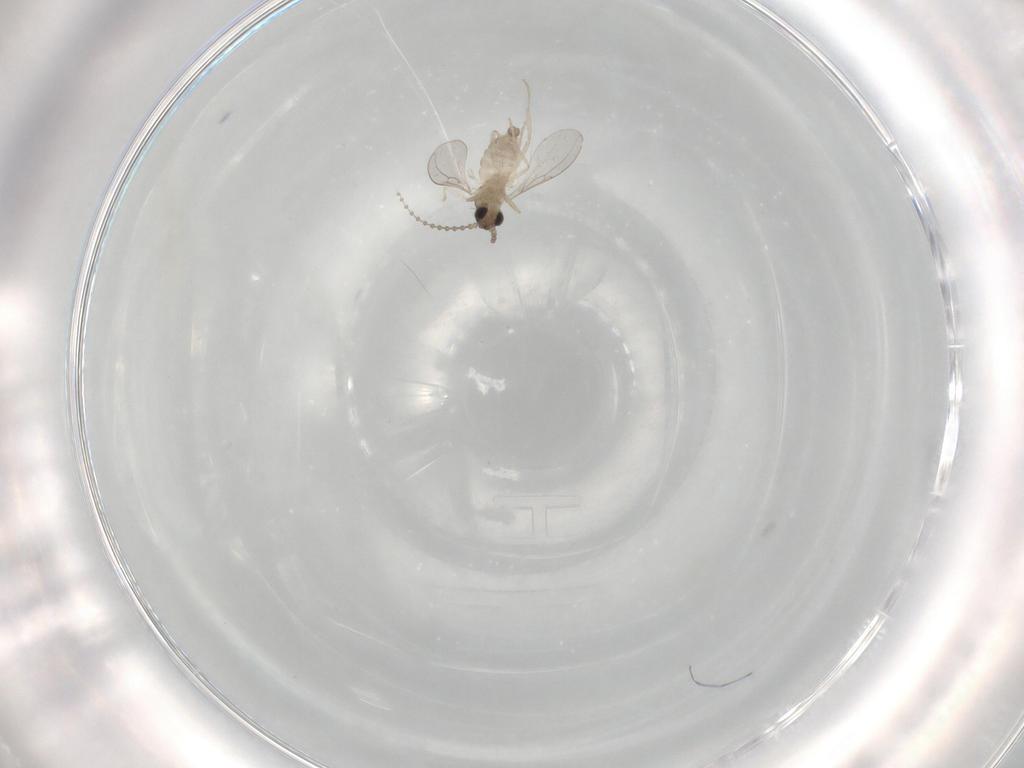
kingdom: Animalia
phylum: Arthropoda
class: Insecta
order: Diptera
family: Cecidomyiidae
